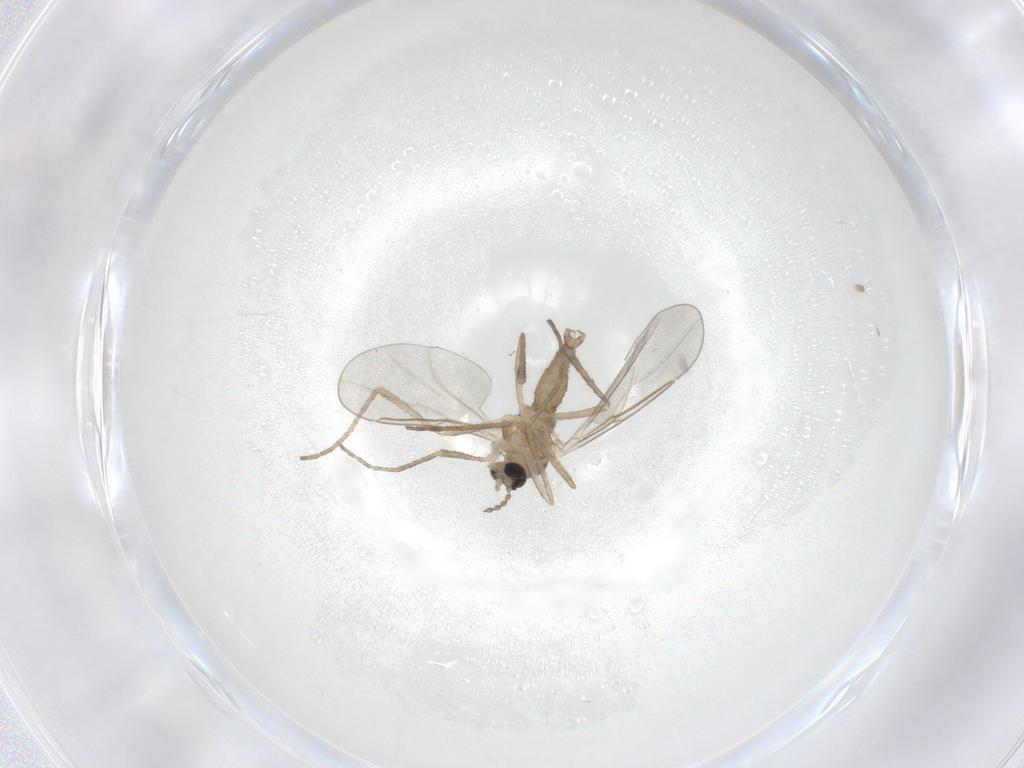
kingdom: Animalia
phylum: Arthropoda
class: Insecta
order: Diptera
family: Cecidomyiidae
